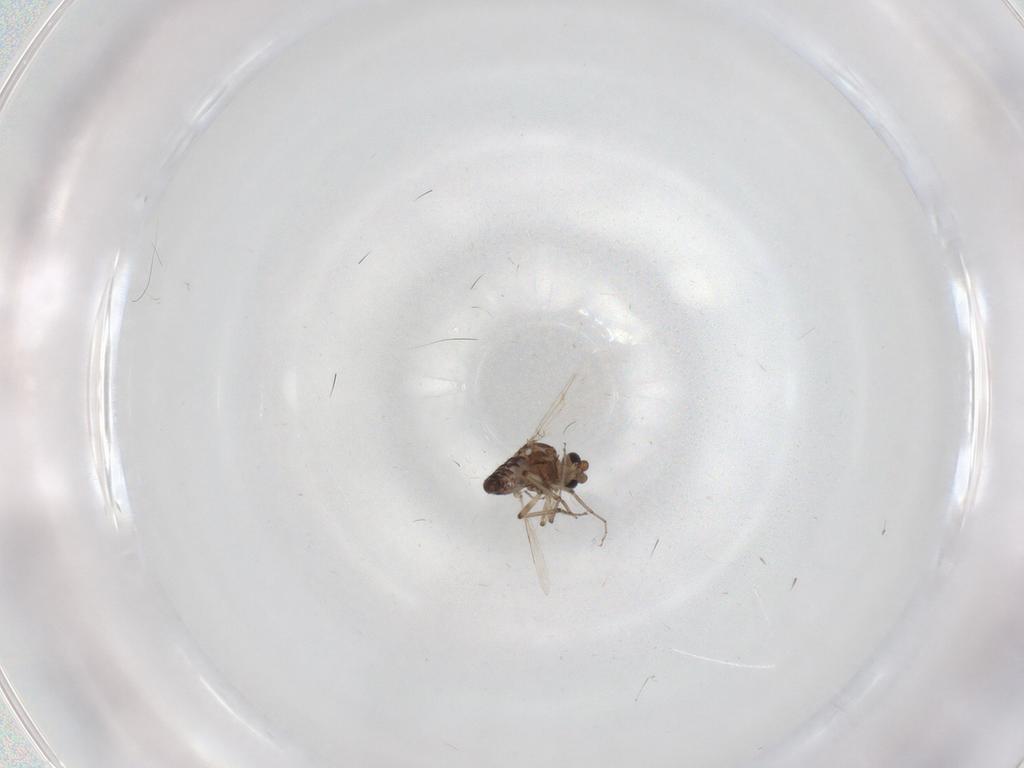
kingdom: Animalia
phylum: Arthropoda
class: Insecta
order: Diptera
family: Ceratopogonidae
